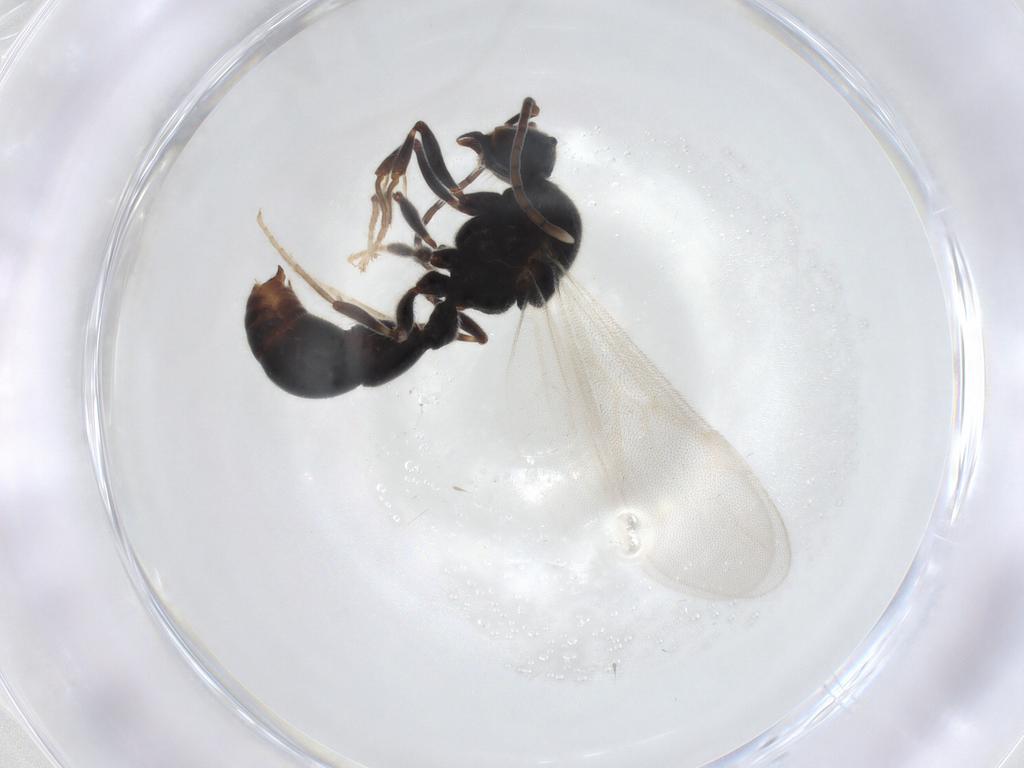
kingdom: Animalia
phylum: Arthropoda
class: Insecta
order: Hymenoptera
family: Formicidae
